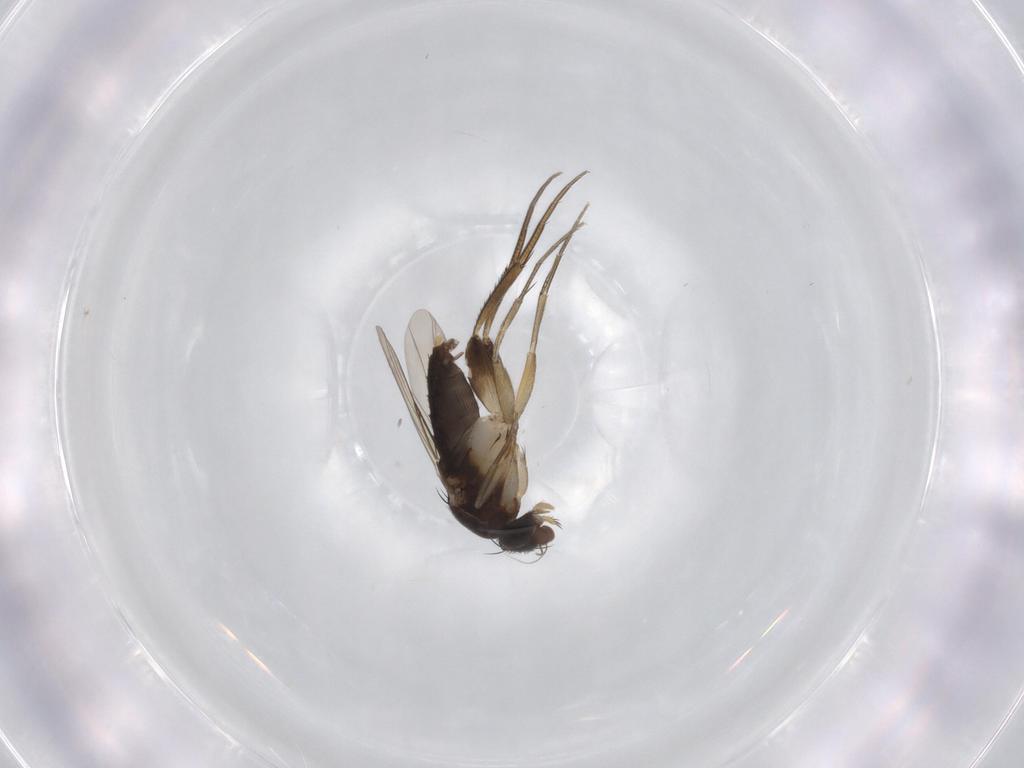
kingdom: Animalia
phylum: Arthropoda
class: Insecta
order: Diptera
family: Phoridae
